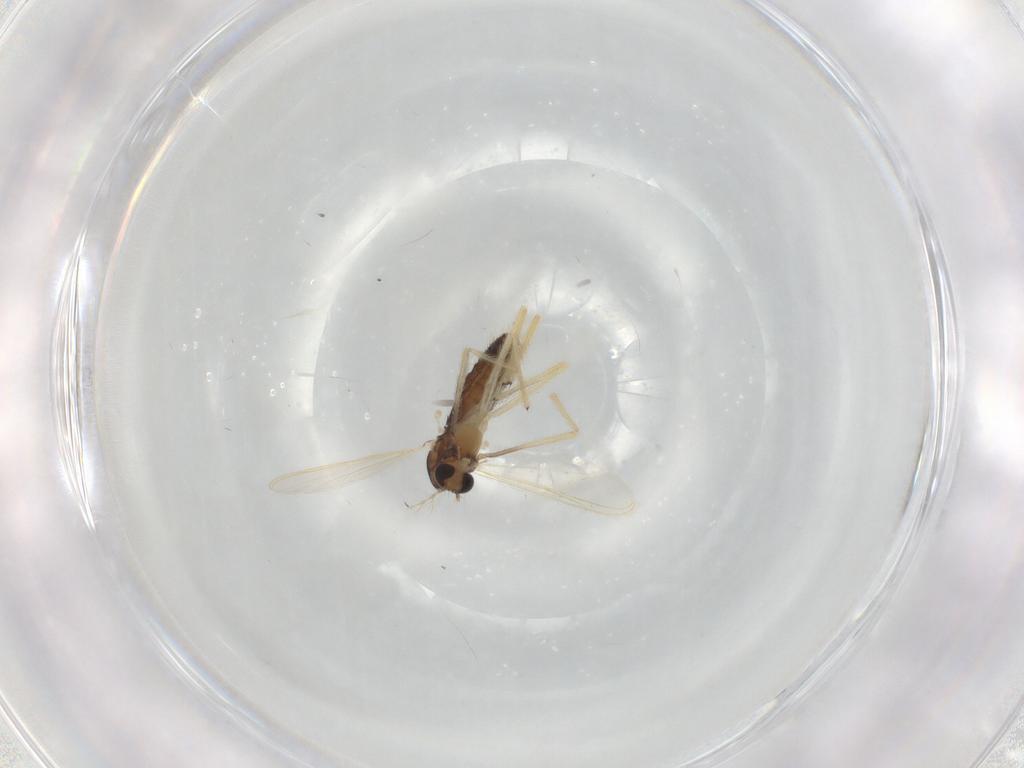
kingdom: Animalia
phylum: Arthropoda
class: Insecta
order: Diptera
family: Chironomidae
